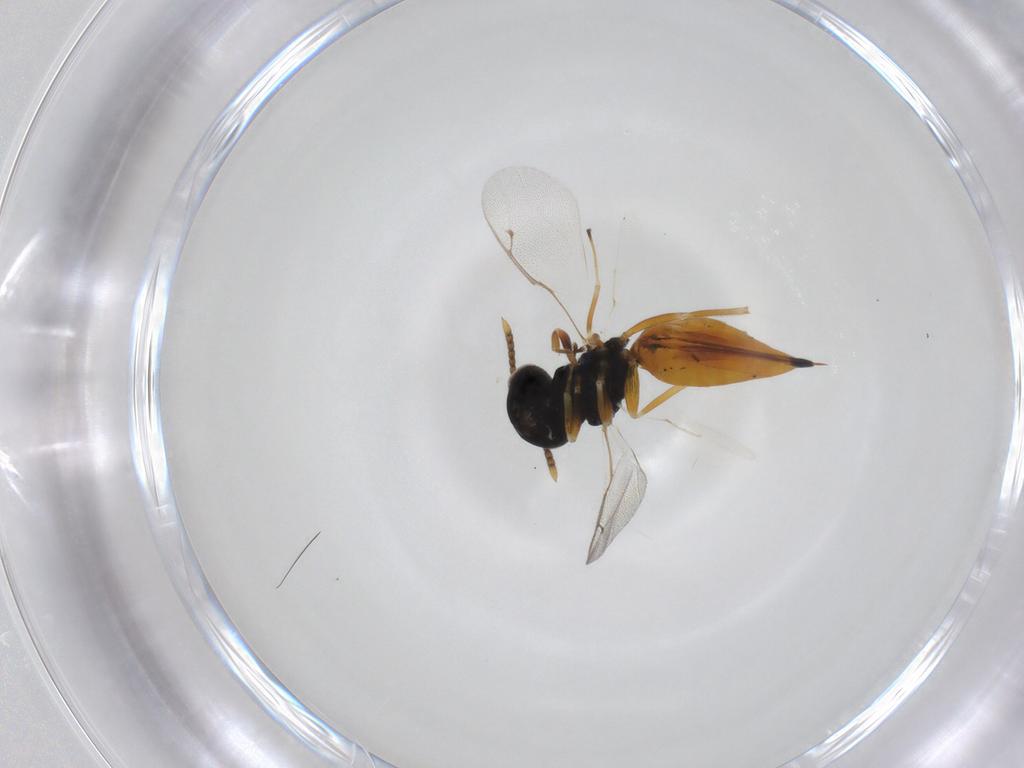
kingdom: Animalia
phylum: Arthropoda
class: Insecta
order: Hymenoptera
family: Pteromalidae
